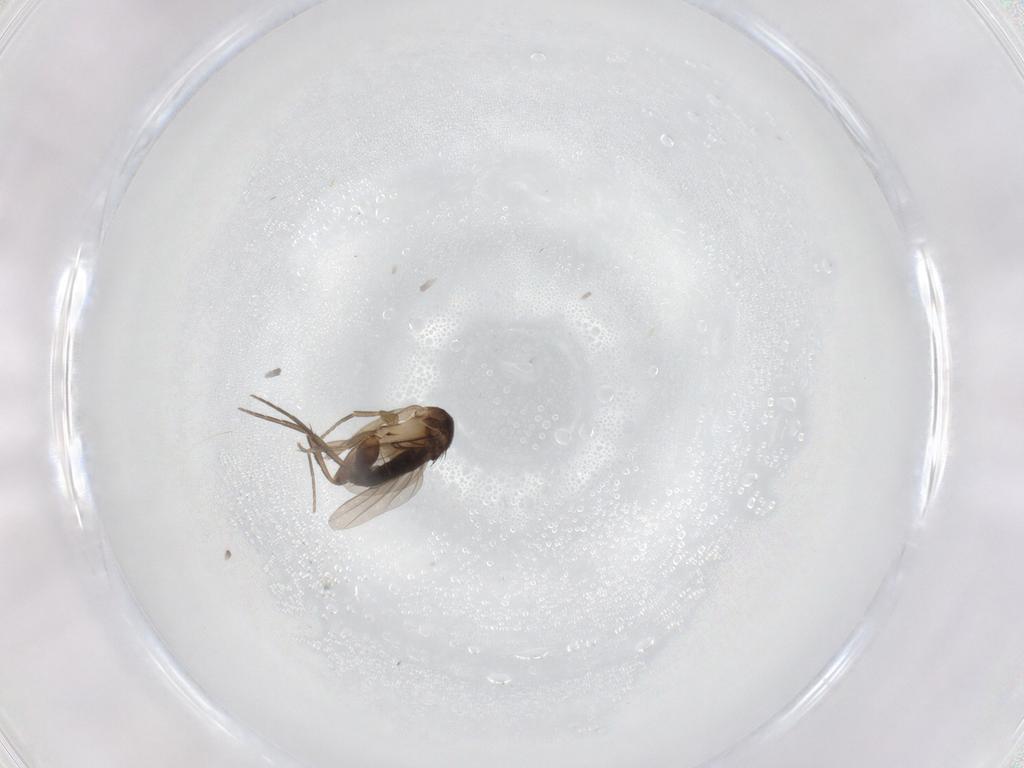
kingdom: Animalia
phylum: Arthropoda
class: Insecta
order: Diptera
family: Phoridae
